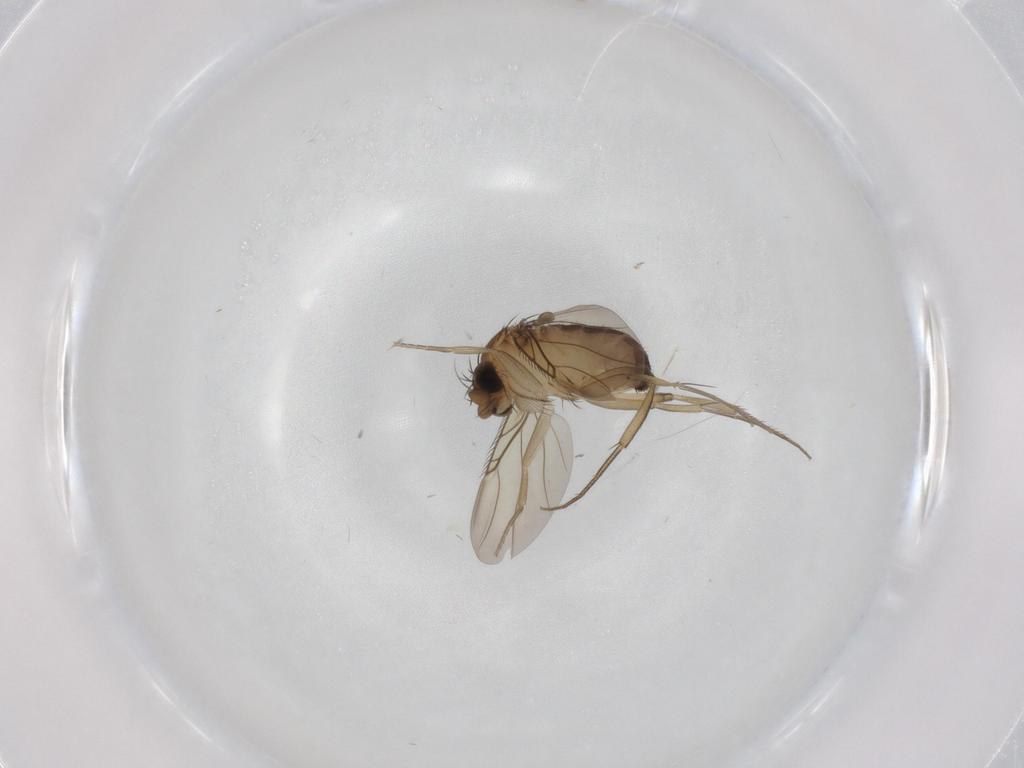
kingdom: Animalia
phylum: Arthropoda
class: Insecta
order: Diptera
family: Phoridae
